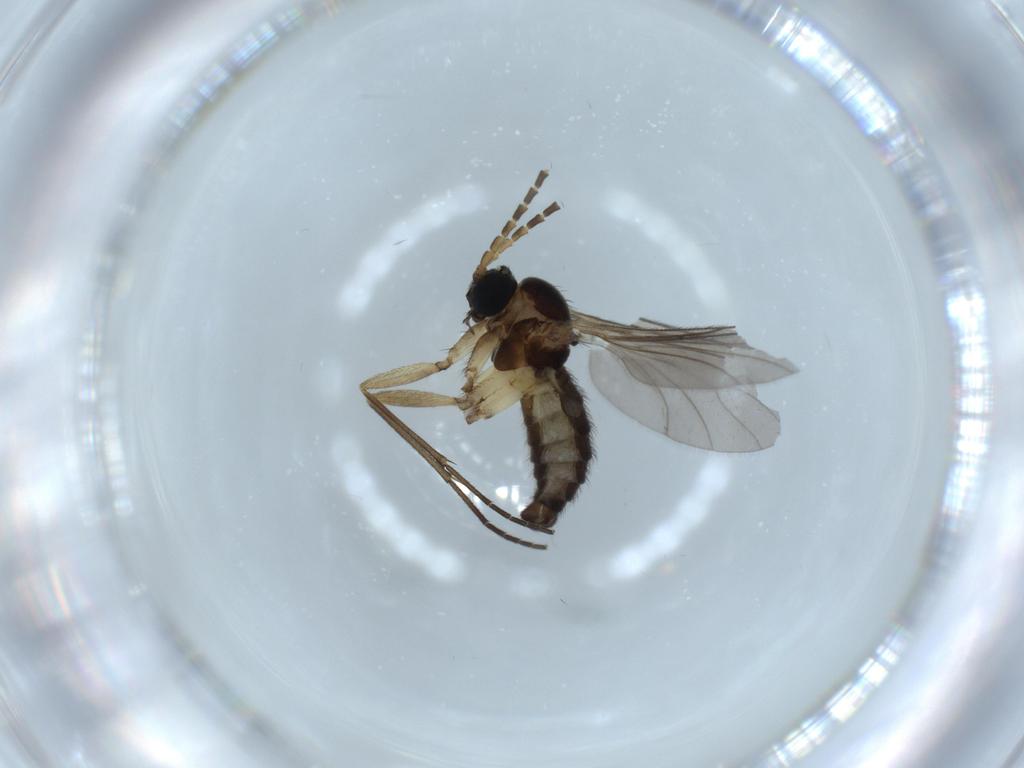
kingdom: Animalia
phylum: Arthropoda
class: Insecta
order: Diptera
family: Sciaridae
